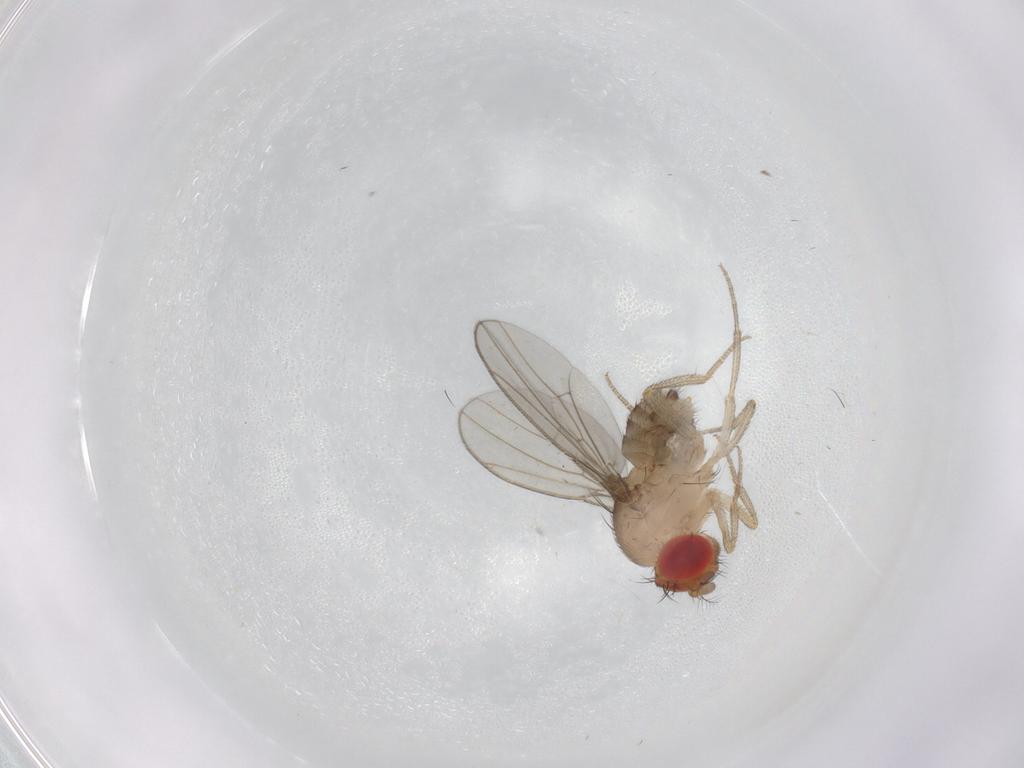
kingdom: Animalia
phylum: Arthropoda
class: Insecta
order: Diptera
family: Drosophilidae
